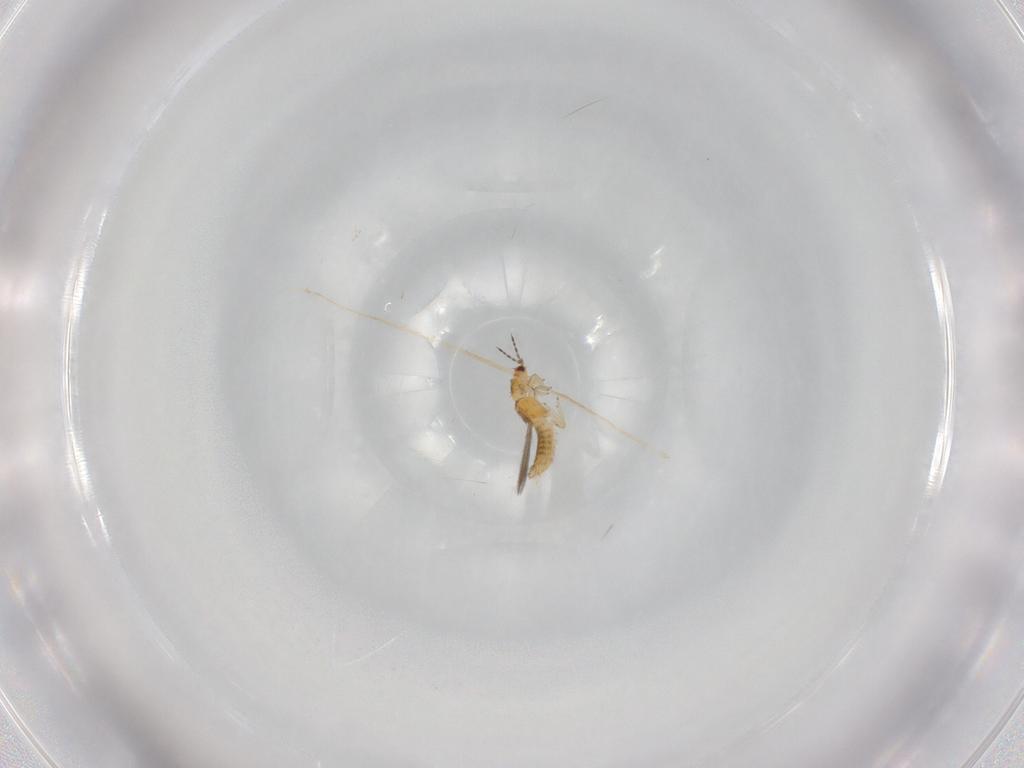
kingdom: Animalia
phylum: Arthropoda
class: Insecta
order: Thysanoptera
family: Thripidae
